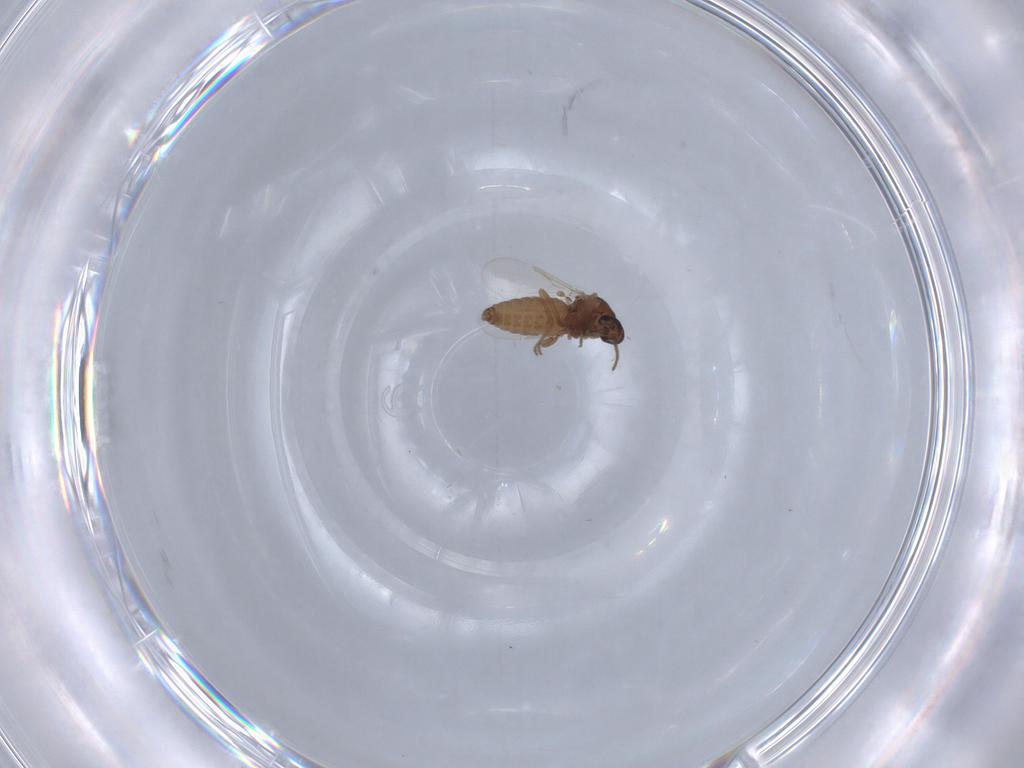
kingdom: Animalia
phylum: Arthropoda
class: Insecta
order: Diptera
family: Ceratopogonidae
